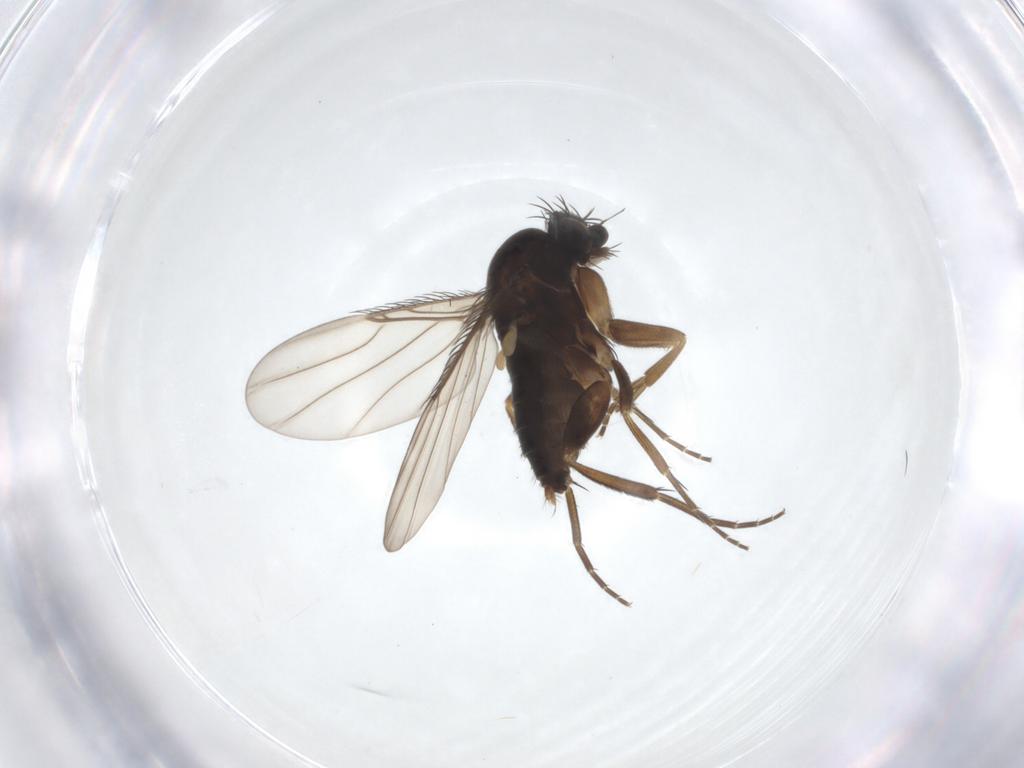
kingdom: Animalia
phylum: Arthropoda
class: Insecta
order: Diptera
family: Phoridae
